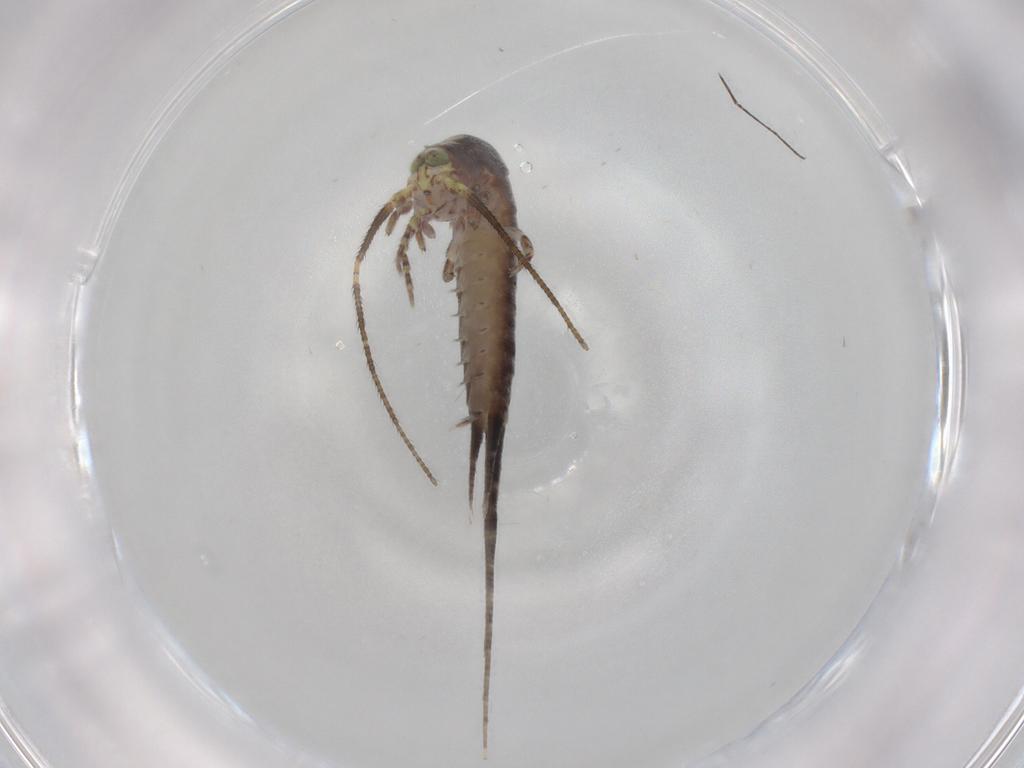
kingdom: Animalia
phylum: Arthropoda
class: Insecta
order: Archaeognatha
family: Machilidae
